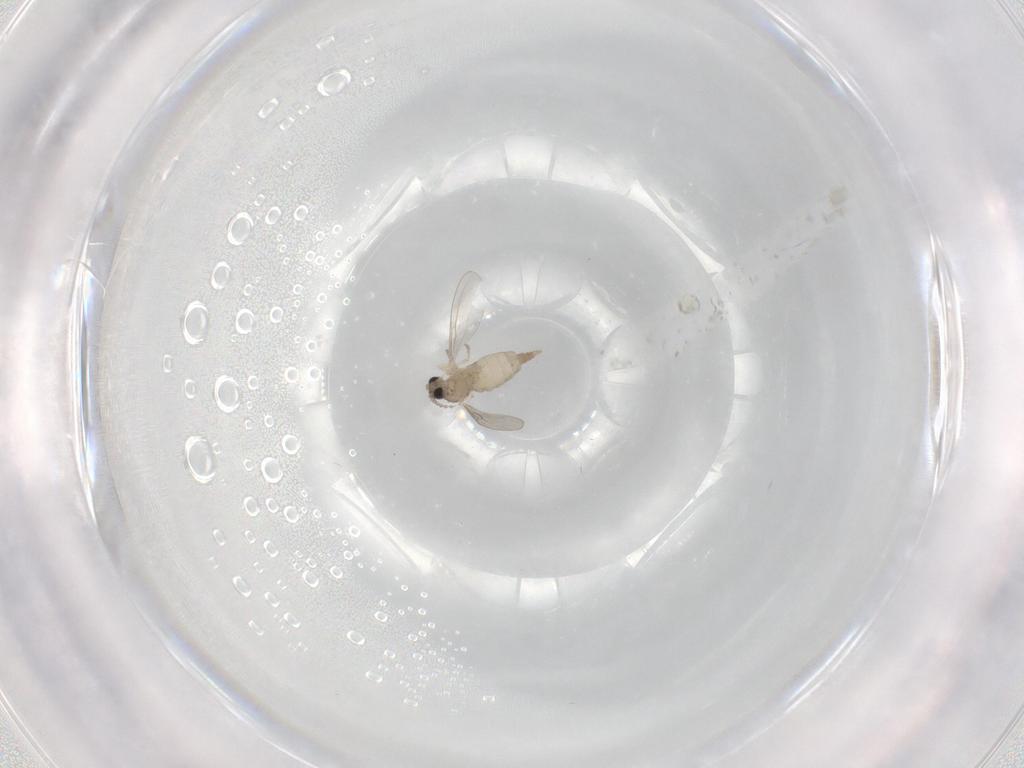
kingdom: Animalia
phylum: Arthropoda
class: Insecta
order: Diptera
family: Cecidomyiidae
